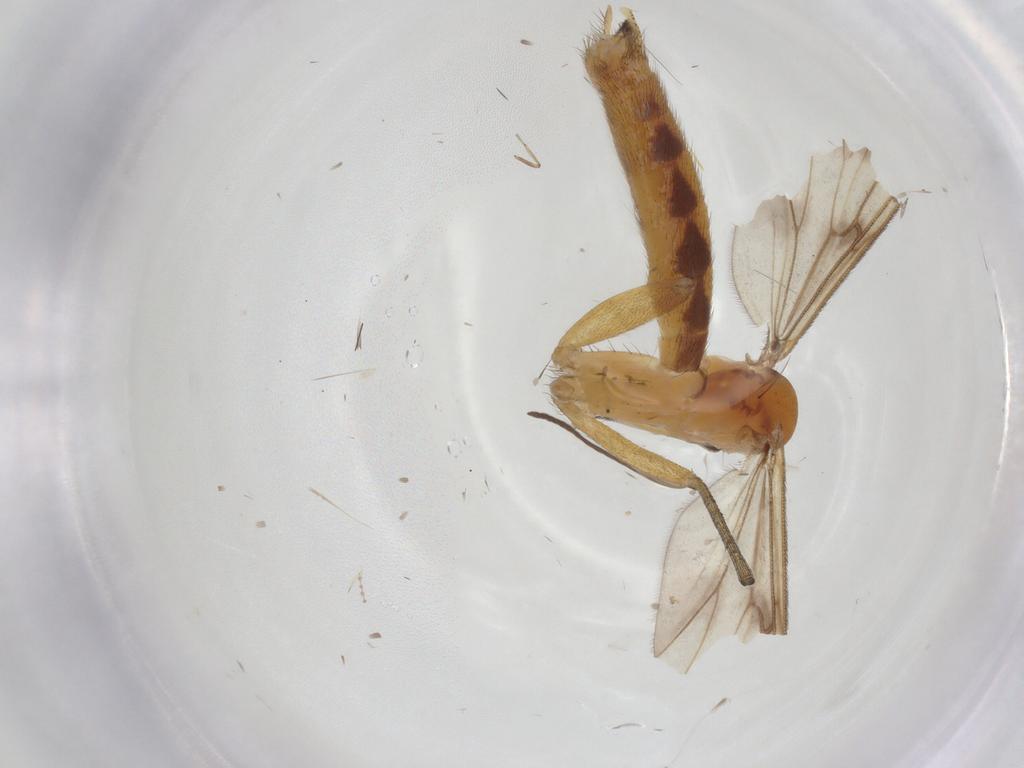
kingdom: Animalia
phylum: Arthropoda
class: Insecta
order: Diptera
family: Mycetophilidae
